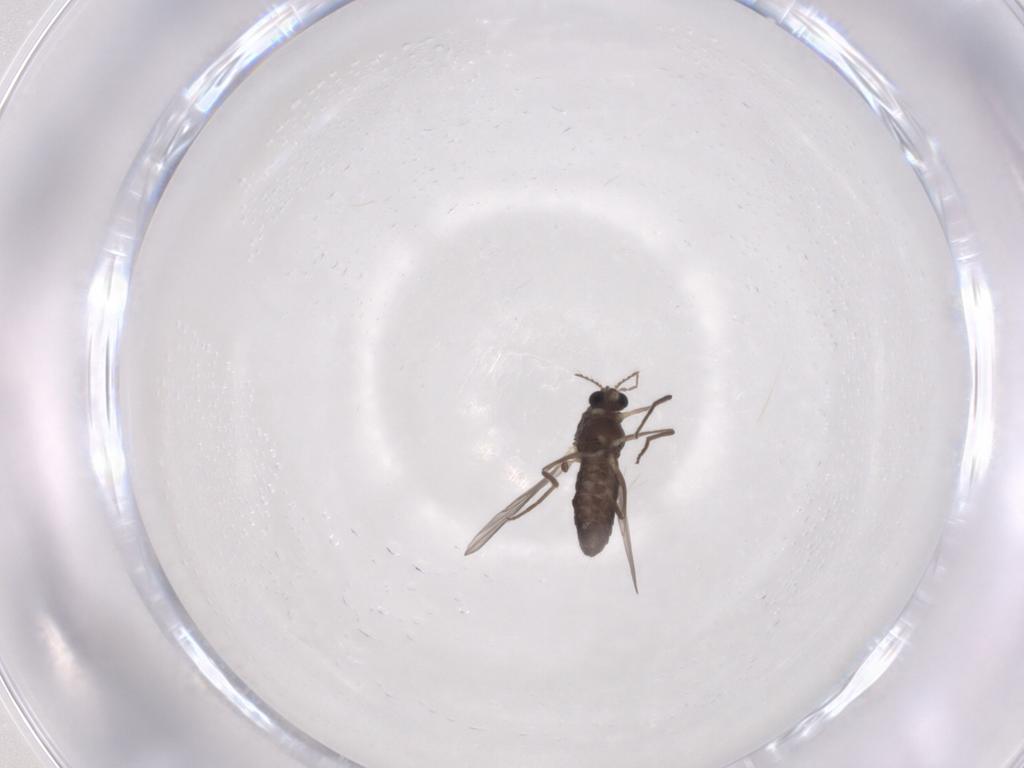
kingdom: Animalia
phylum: Arthropoda
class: Insecta
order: Diptera
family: Chironomidae
